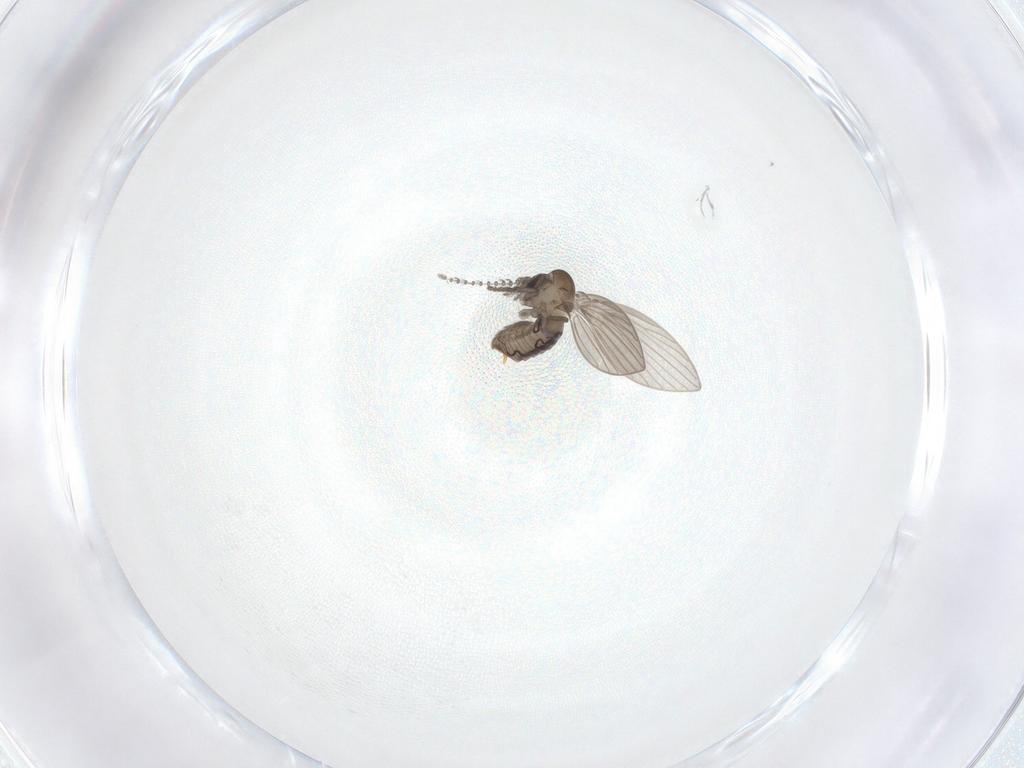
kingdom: Animalia
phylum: Arthropoda
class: Insecta
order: Diptera
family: Psychodidae
